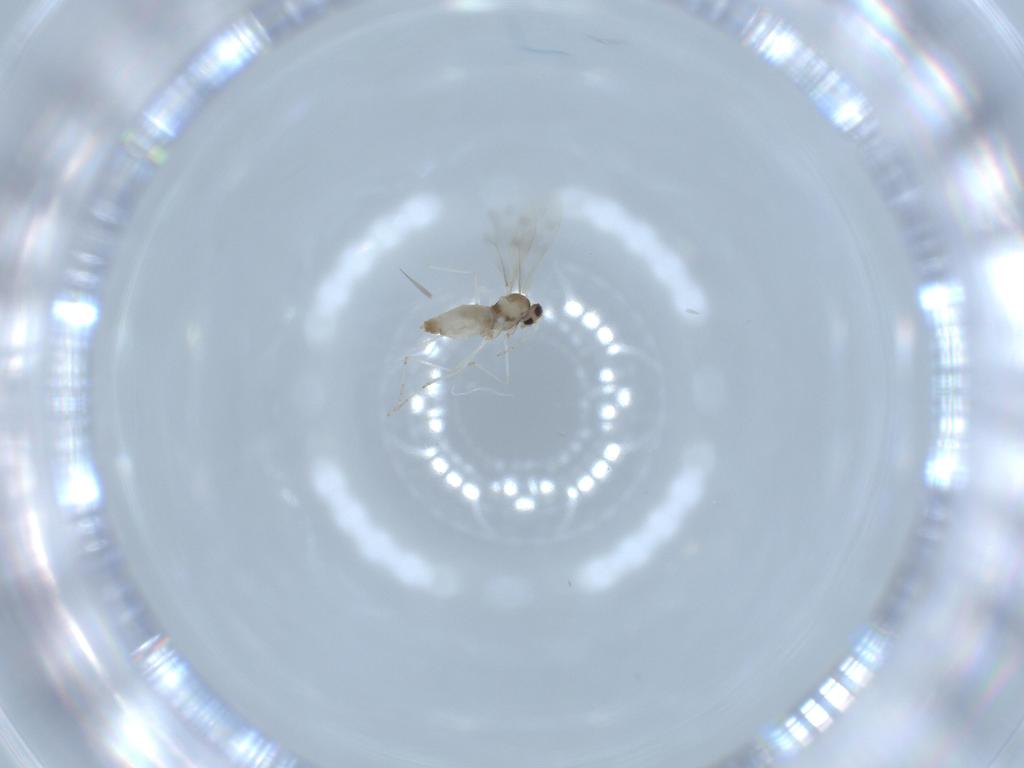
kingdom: Animalia
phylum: Arthropoda
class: Insecta
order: Diptera
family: Cecidomyiidae
